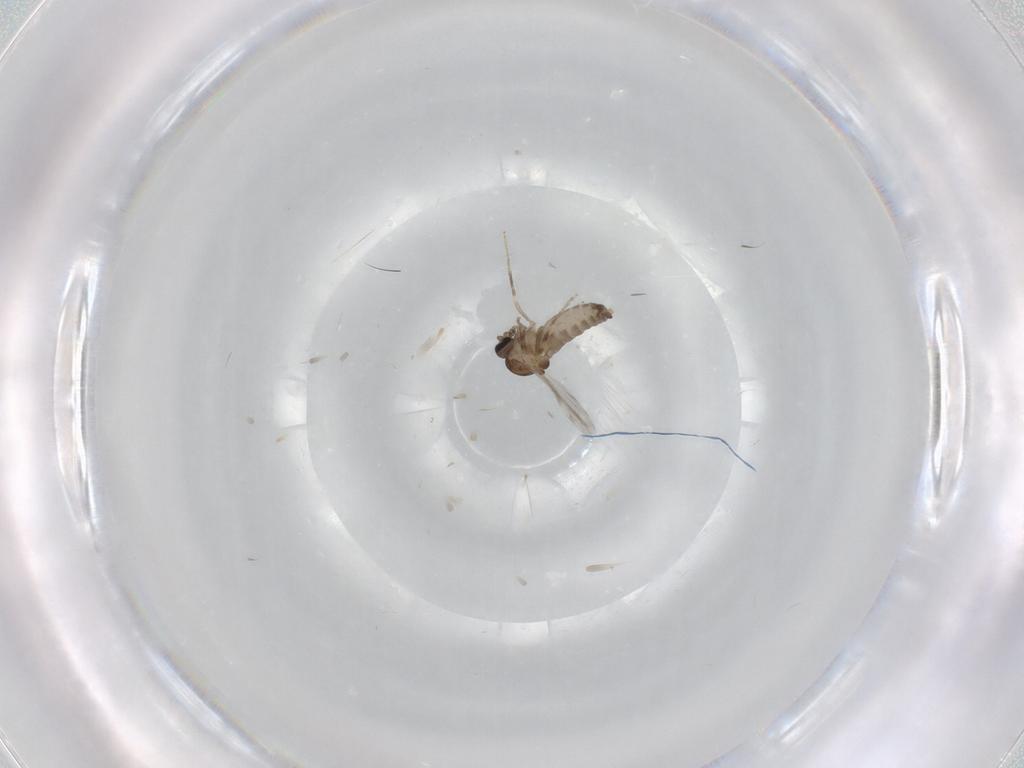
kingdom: Animalia
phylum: Arthropoda
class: Insecta
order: Diptera
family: Ceratopogonidae
